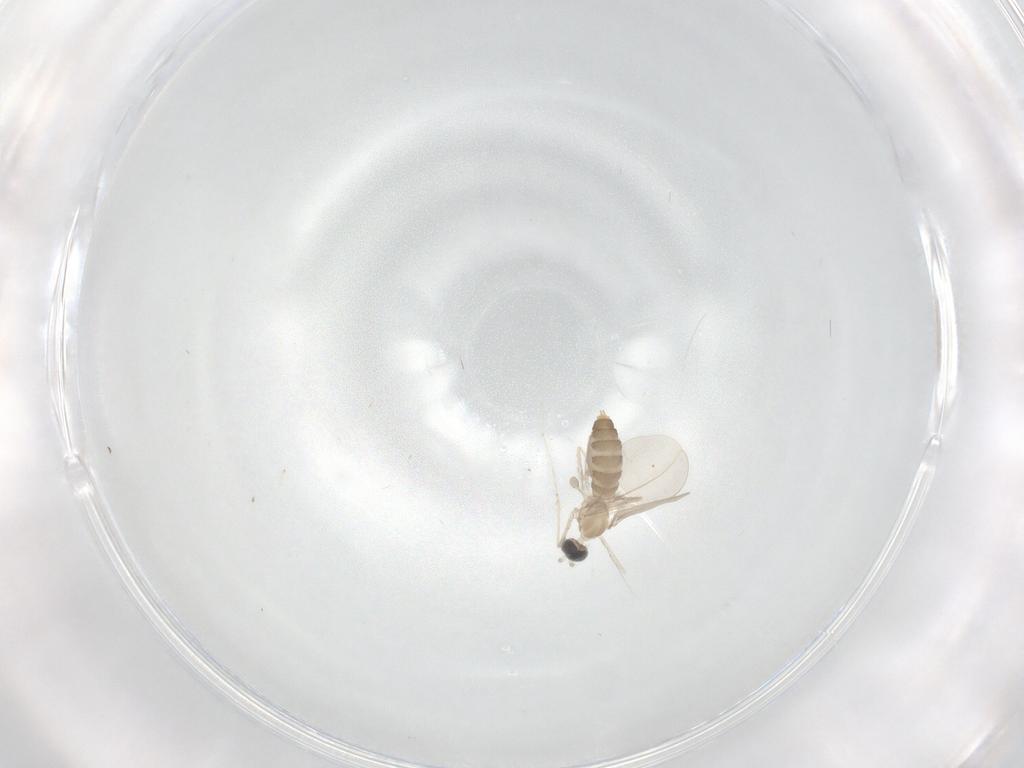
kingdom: Animalia
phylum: Arthropoda
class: Insecta
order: Diptera
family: Cecidomyiidae
